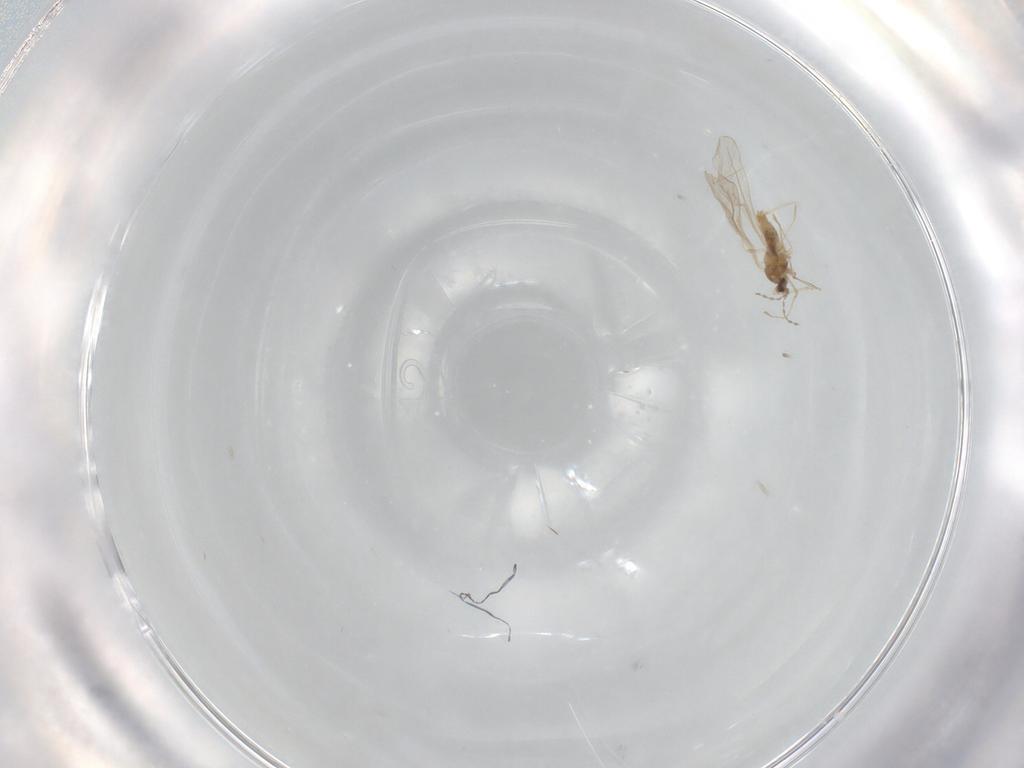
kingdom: Animalia
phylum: Arthropoda
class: Insecta
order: Diptera
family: Cecidomyiidae
